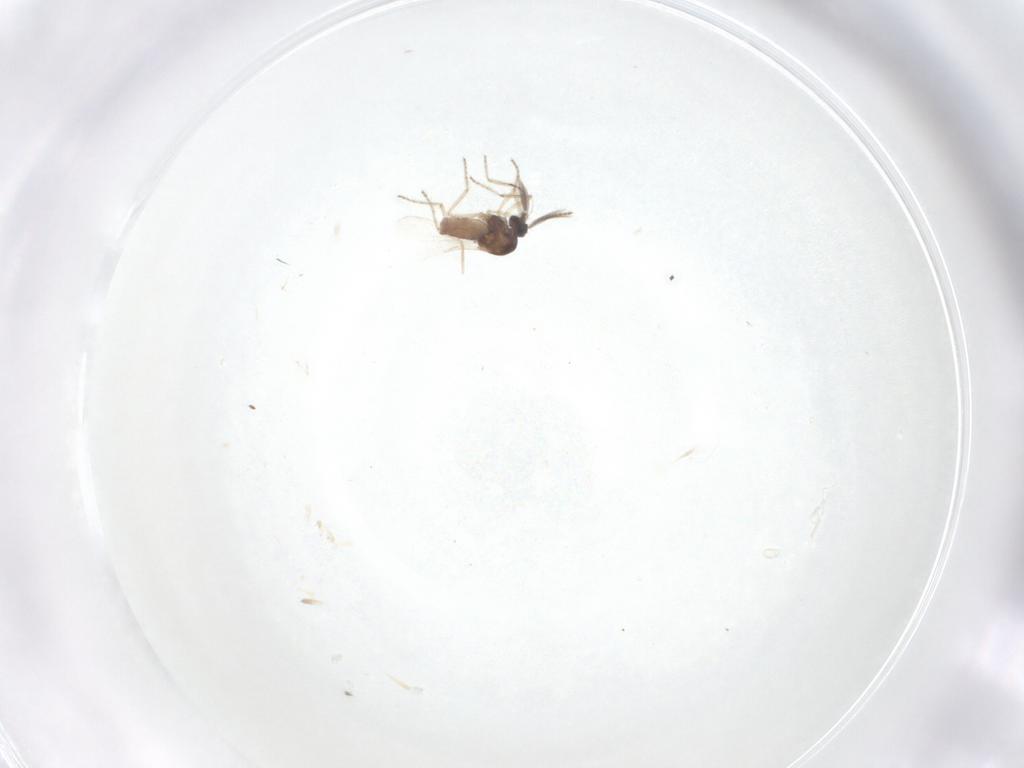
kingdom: Animalia
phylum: Arthropoda
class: Insecta
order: Diptera
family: Ceratopogonidae
